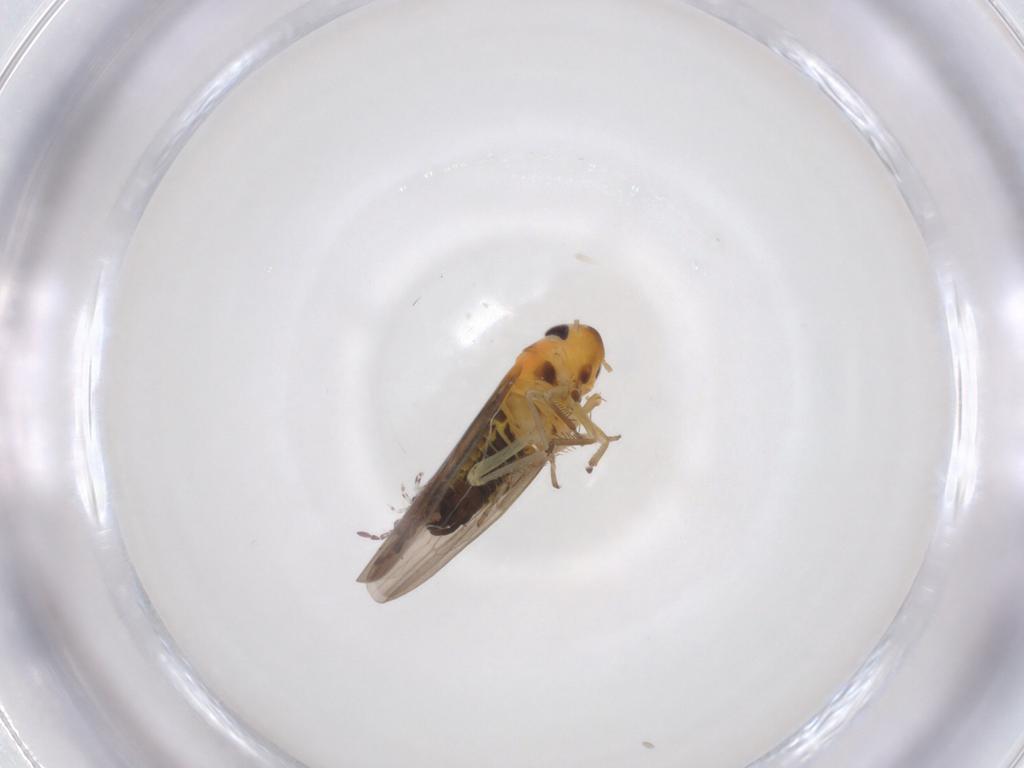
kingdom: Animalia
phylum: Arthropoda
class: Insecta
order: Hemiptera
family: Cicadellidae
